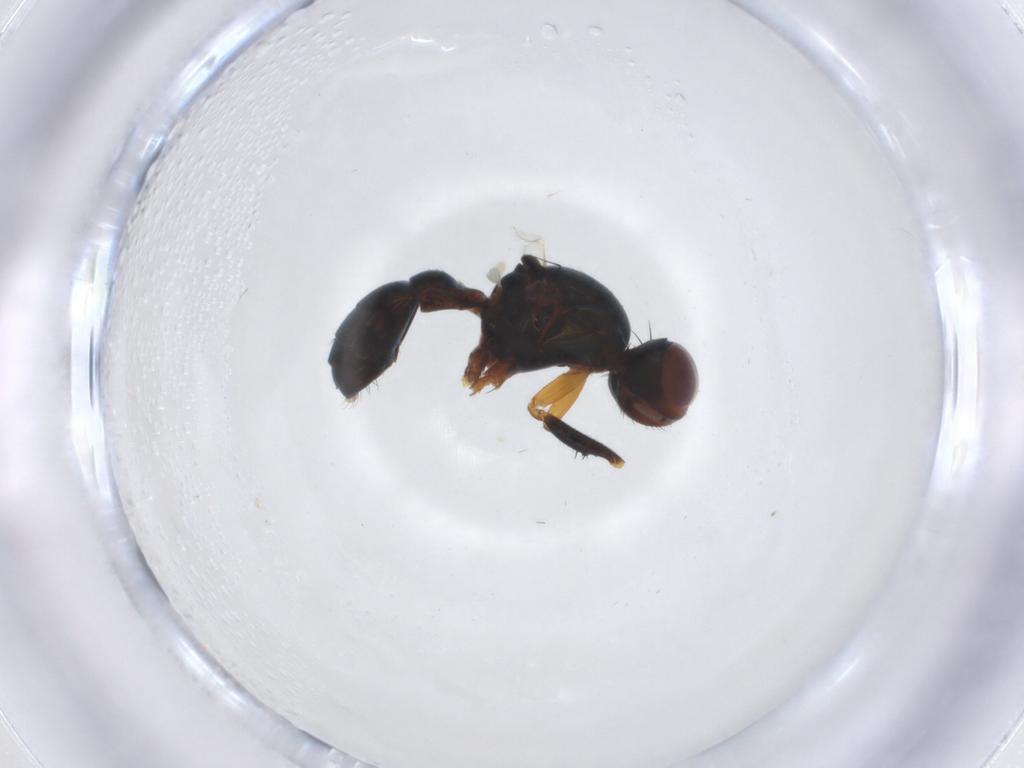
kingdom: Animalia
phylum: Arthropoda
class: Insecta
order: Diptera
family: Sepsidae
